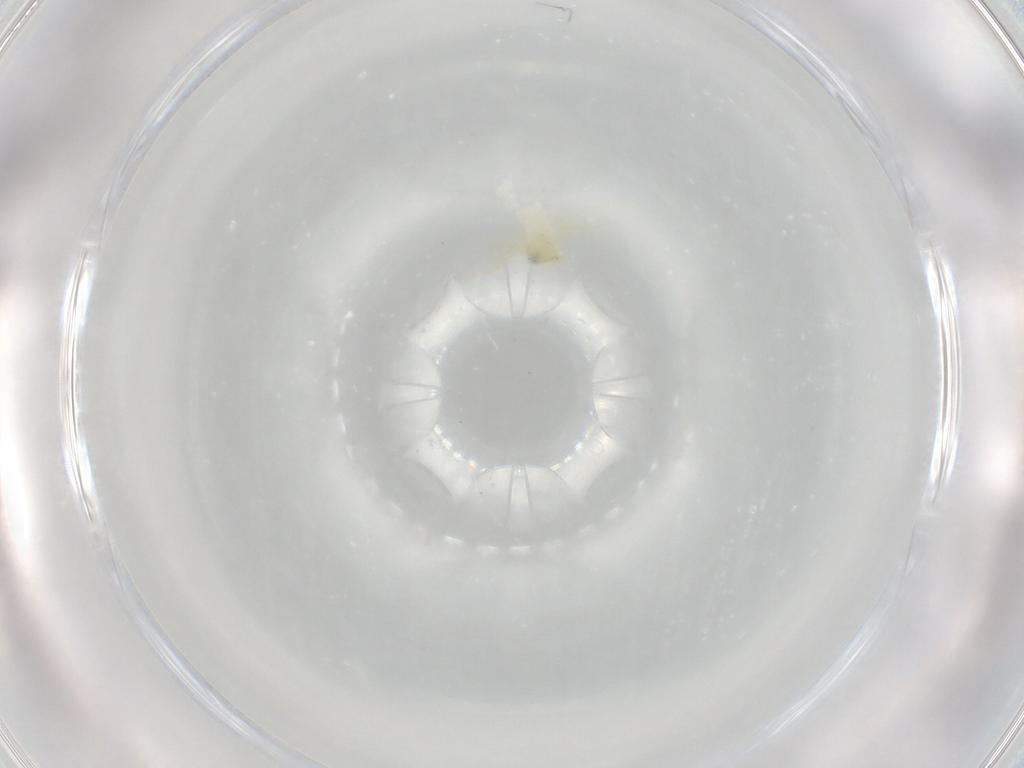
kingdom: Animalia
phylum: Arthropoda
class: Insecta
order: Hemiptera
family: Aleyrodidae
